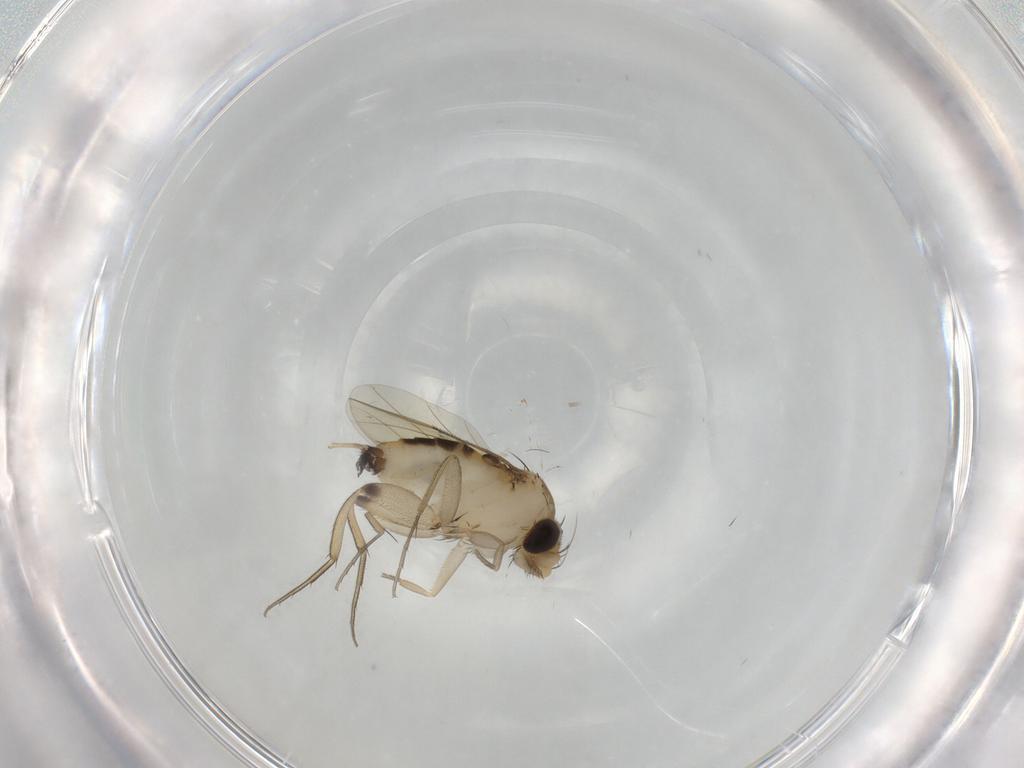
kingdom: Animalia
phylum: Arthropoda
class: Insecta
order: Diptera
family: Phoridae
